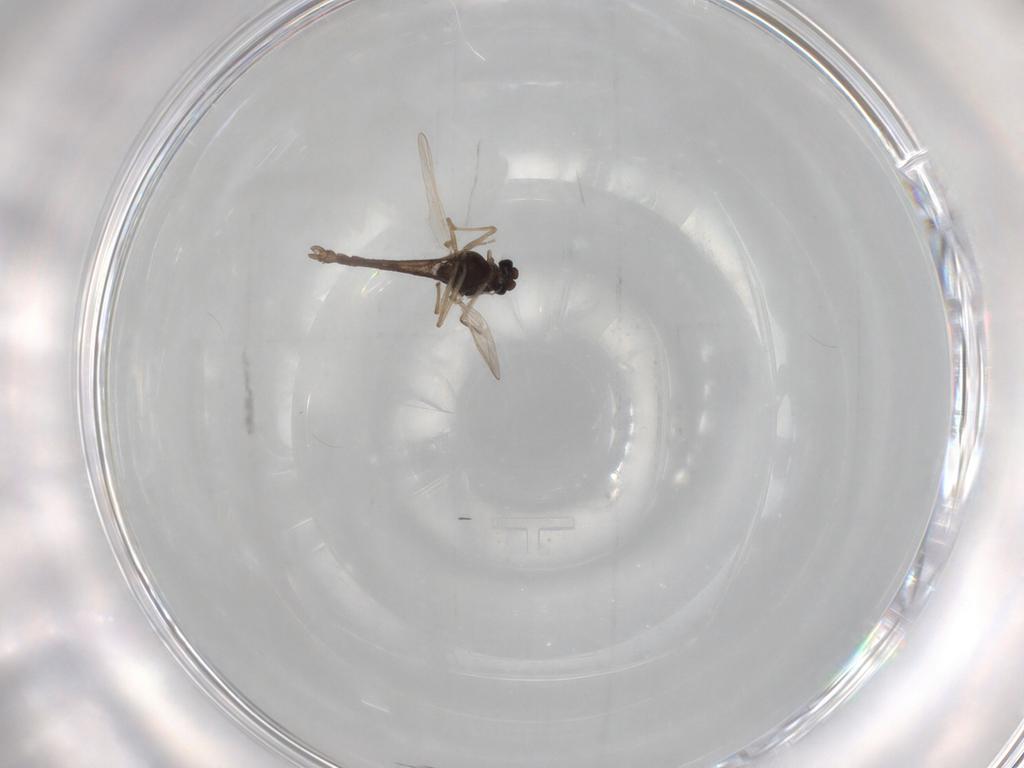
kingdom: Animalia
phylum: Arthropoda
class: Insecta
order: Diptera
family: Chironomidae
